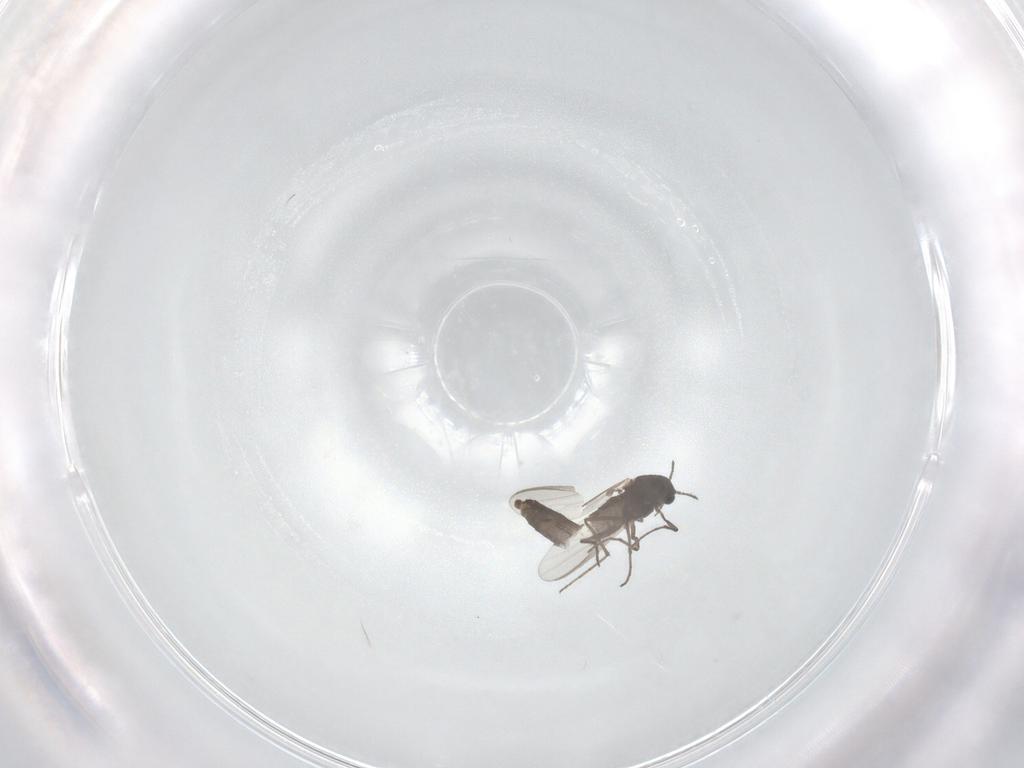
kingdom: Animalia
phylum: Arthropoda
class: Insecta
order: Diptera
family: Chironomidae
